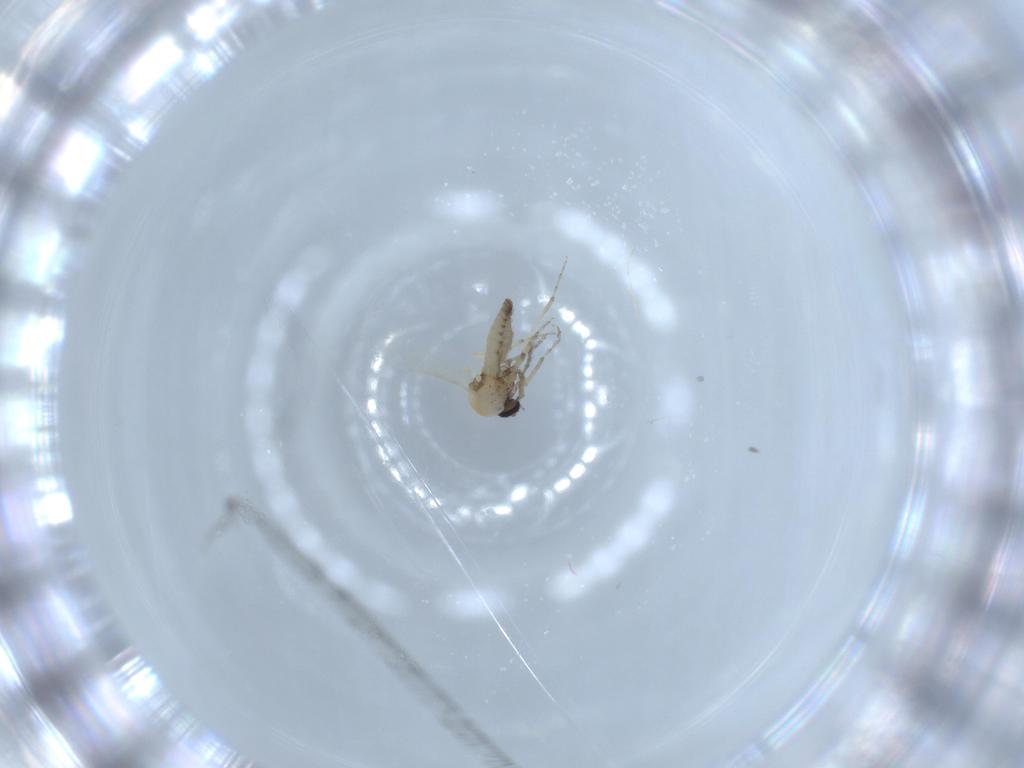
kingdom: Animalia
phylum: Arthropoda
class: Insecta
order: Diptera
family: Ceratopogonidae
